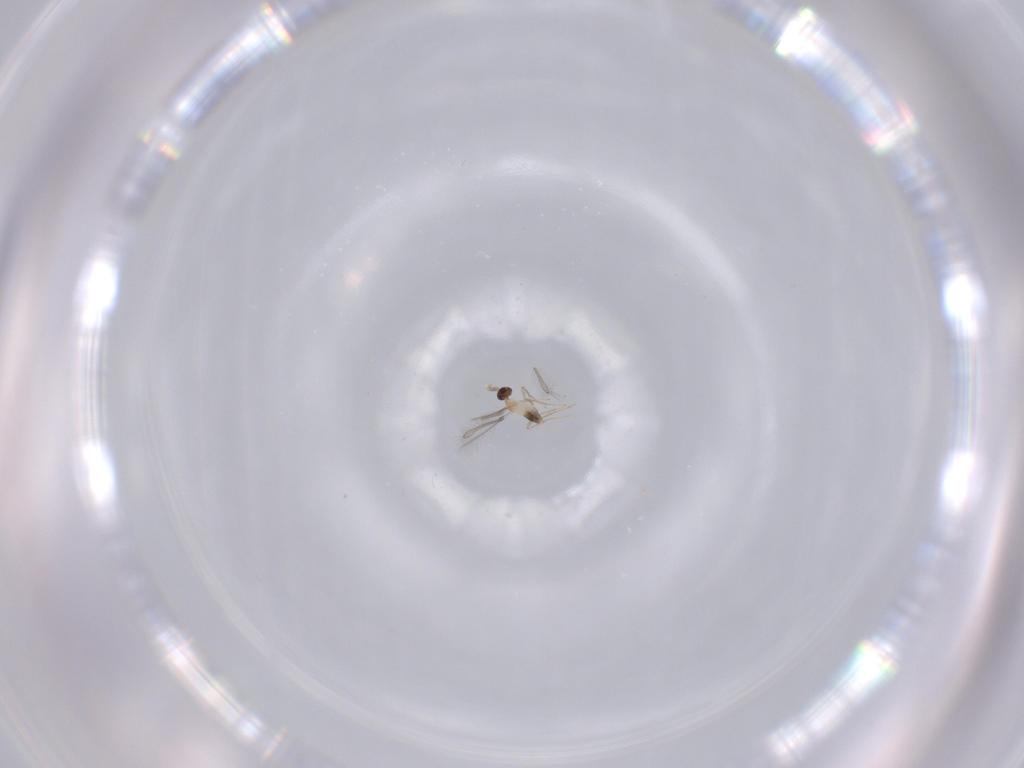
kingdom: Animalia
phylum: Arthropoda
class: Insecta
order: Hymenoptera
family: Mymaridae
